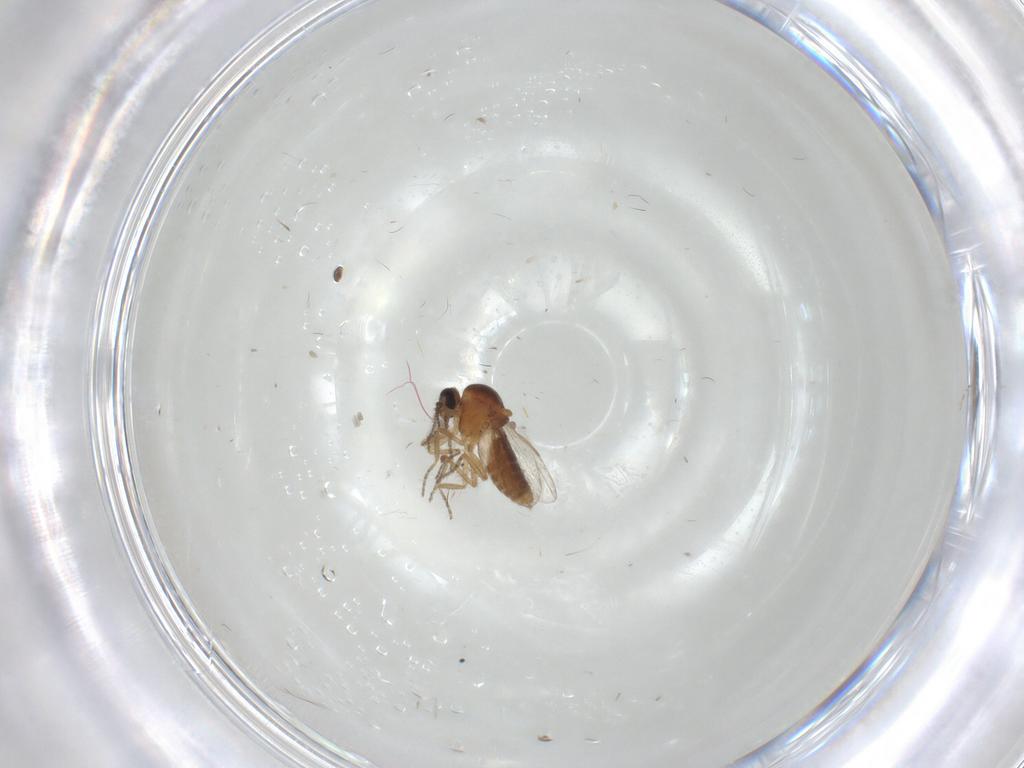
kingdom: Animalia
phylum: Arthropoda
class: Insecta
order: Diptera
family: Ceratopogonidae
